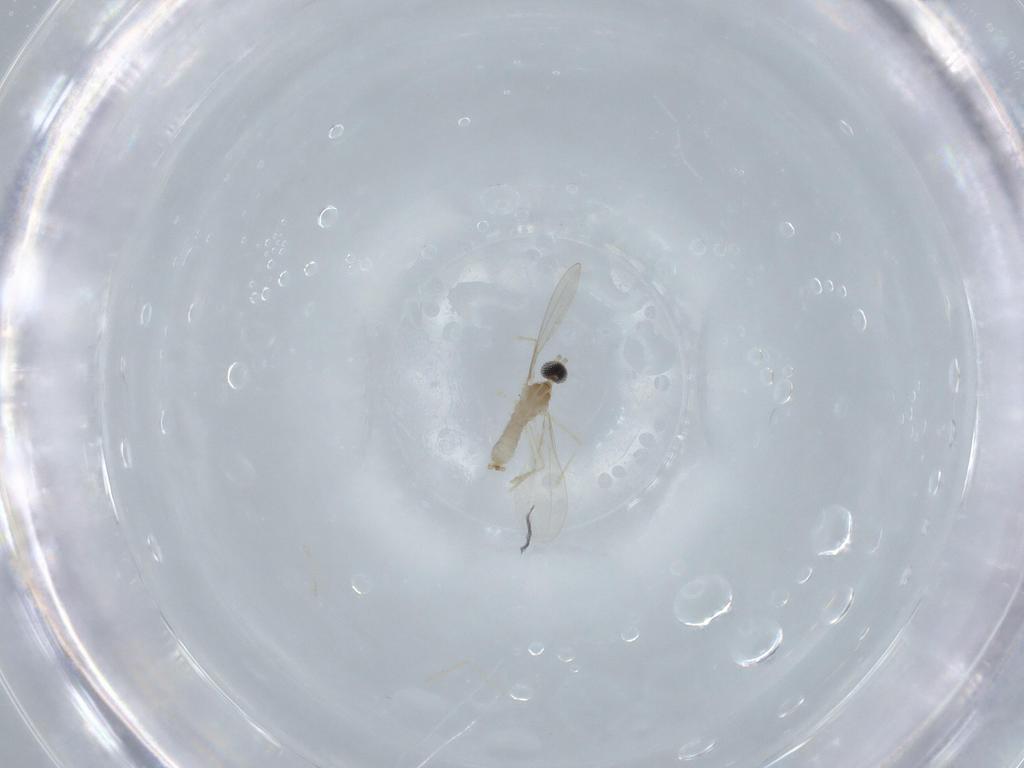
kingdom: Animalia
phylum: Arthropoda
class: Insecta
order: Diptera
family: Cecidomyiidae
